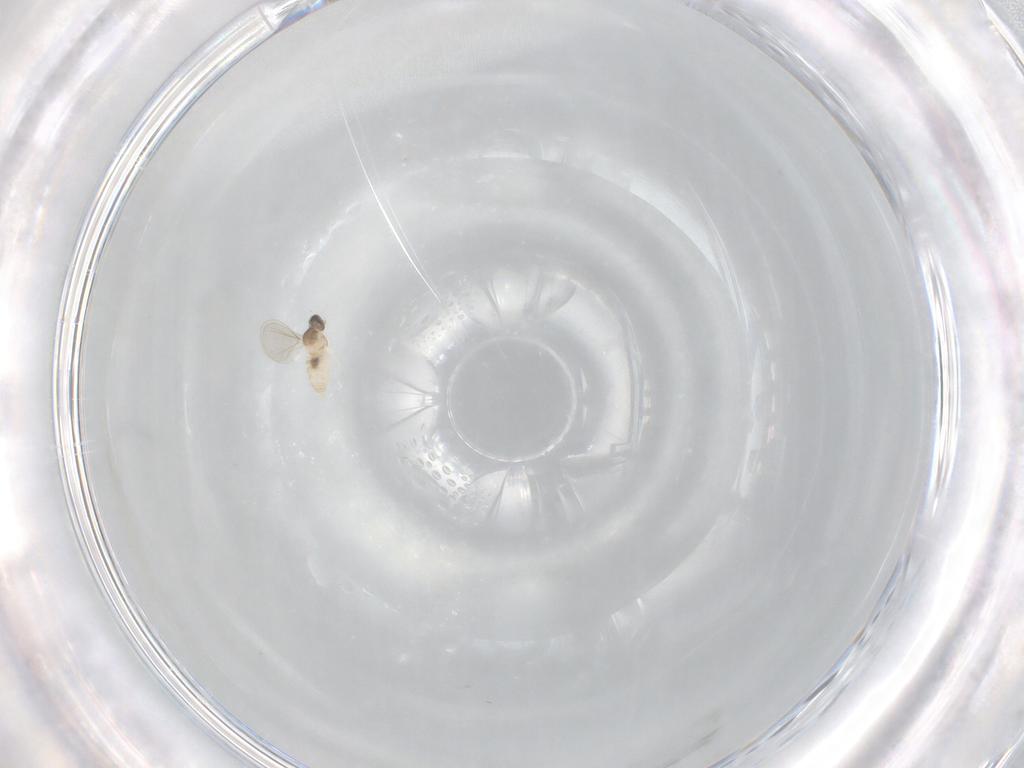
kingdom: Animalia
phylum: Arthropoda
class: Insecta
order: Diptera
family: Cecidomyiidae
